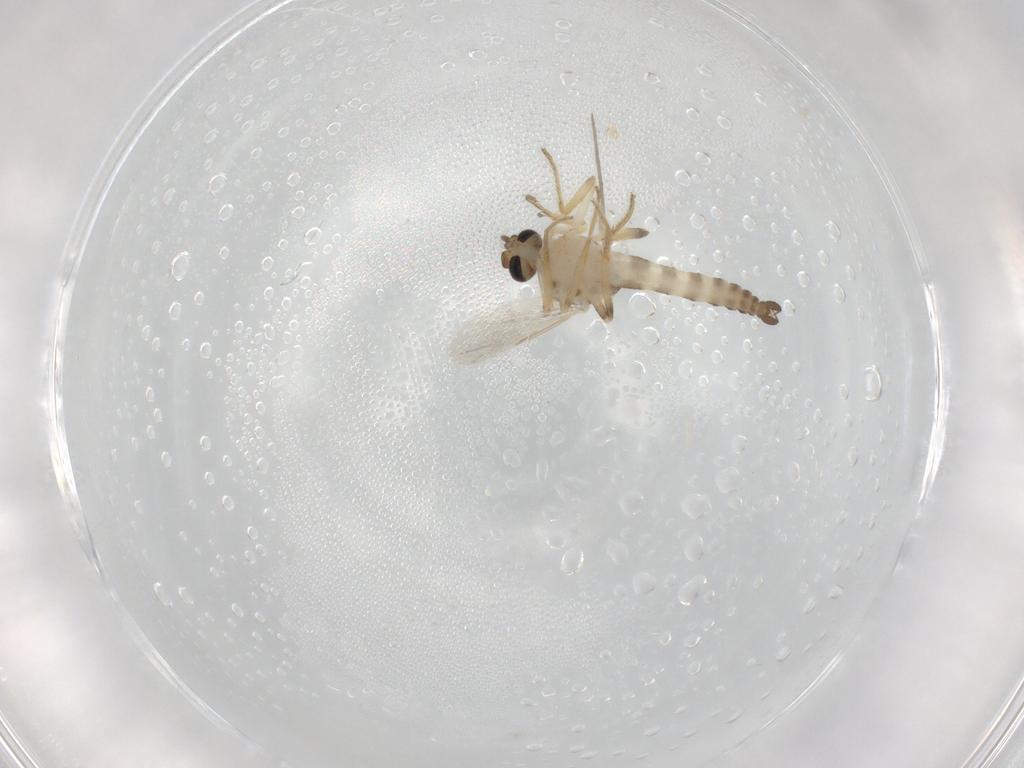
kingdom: Animalia
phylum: Arthropoda
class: Insecta
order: Diptera
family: Ceratopogonidae
